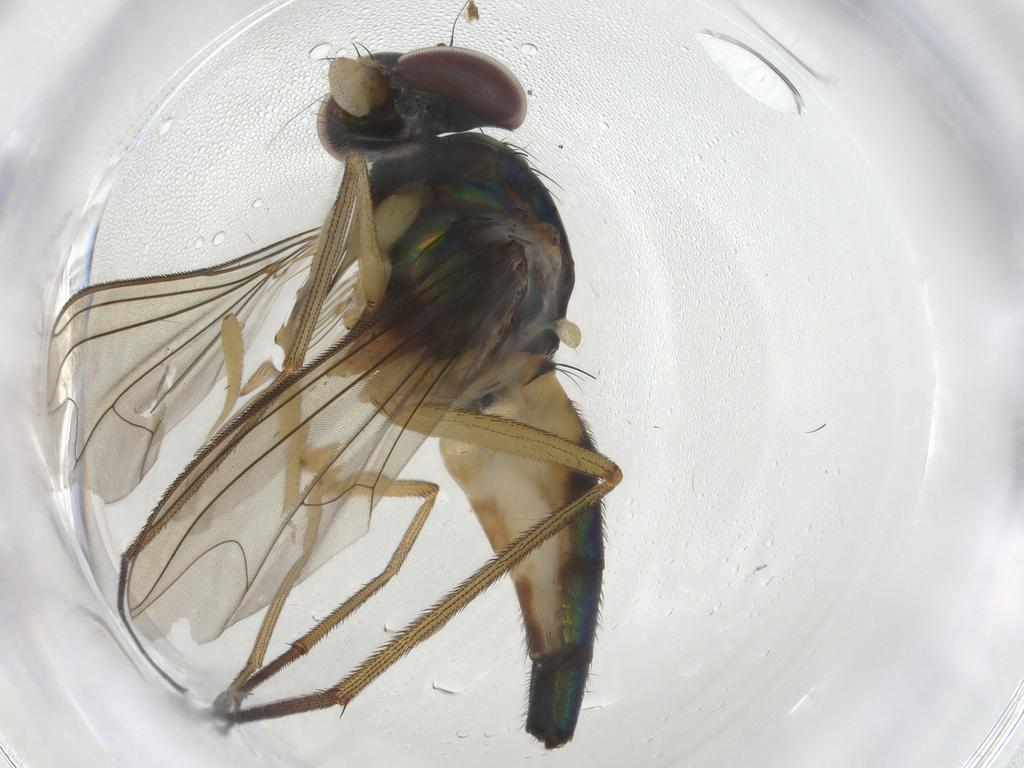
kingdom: Animalia
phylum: Arthropoda
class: Insecta
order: Diptera
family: Dolichopodidae
